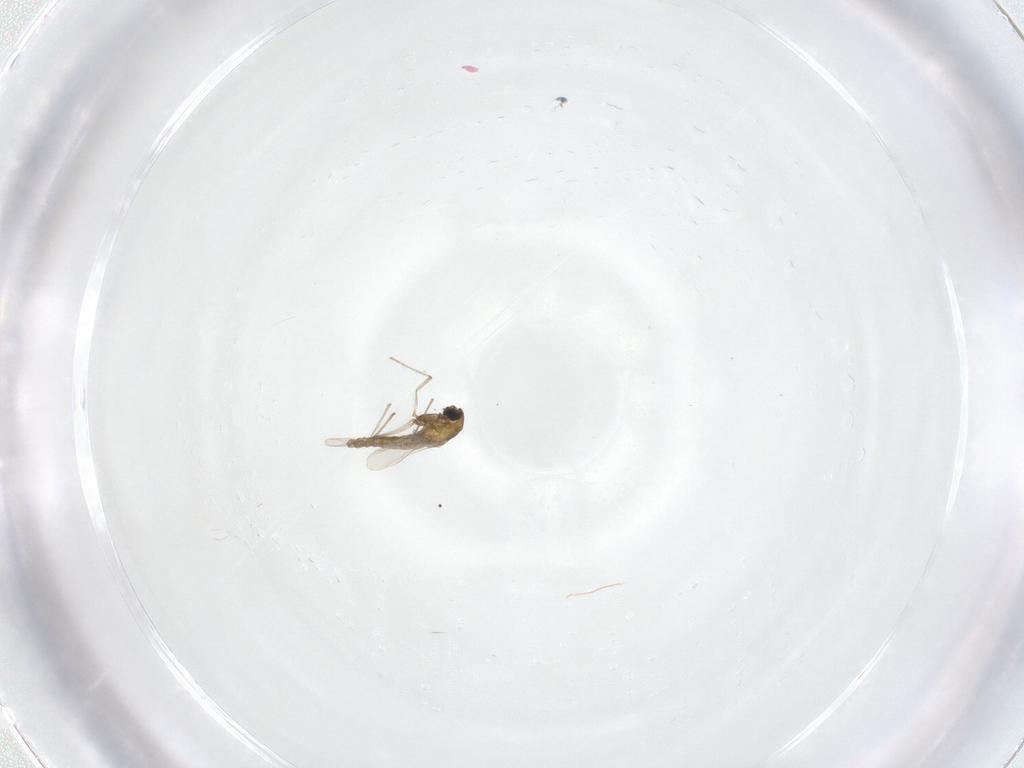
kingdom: Animalia
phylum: Arthropoda
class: Insecta
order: Diptera
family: Chironomidae
